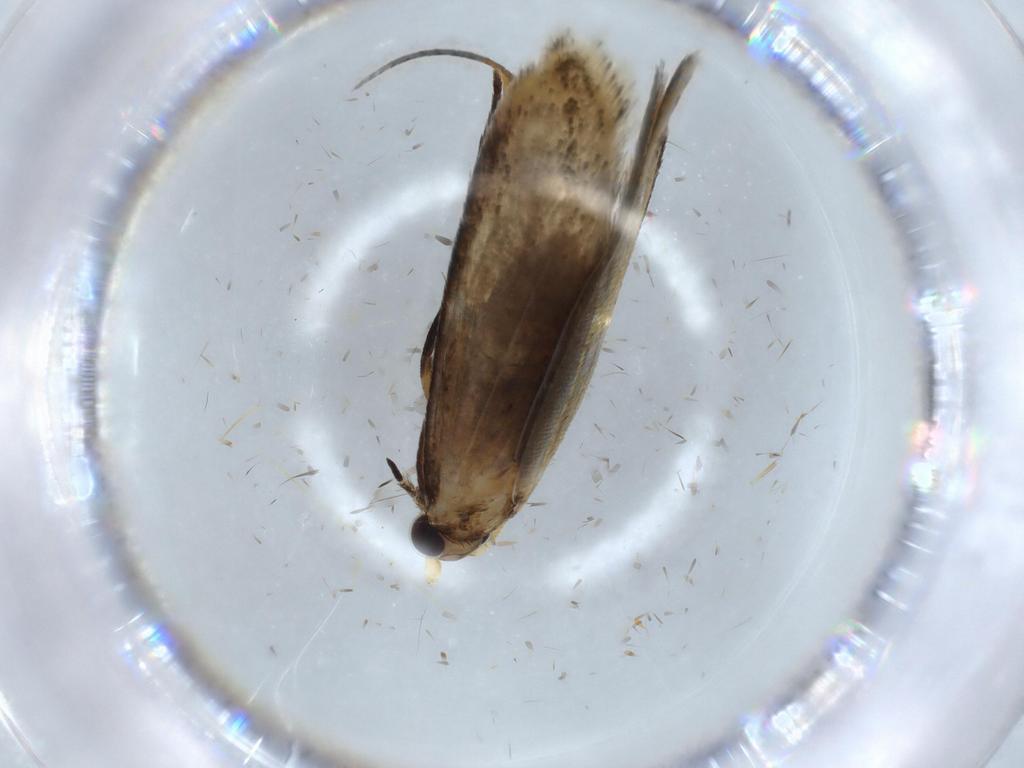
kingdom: Animalia
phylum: Arthropoda
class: Insecta
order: Lepidoptera
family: Tineidae
